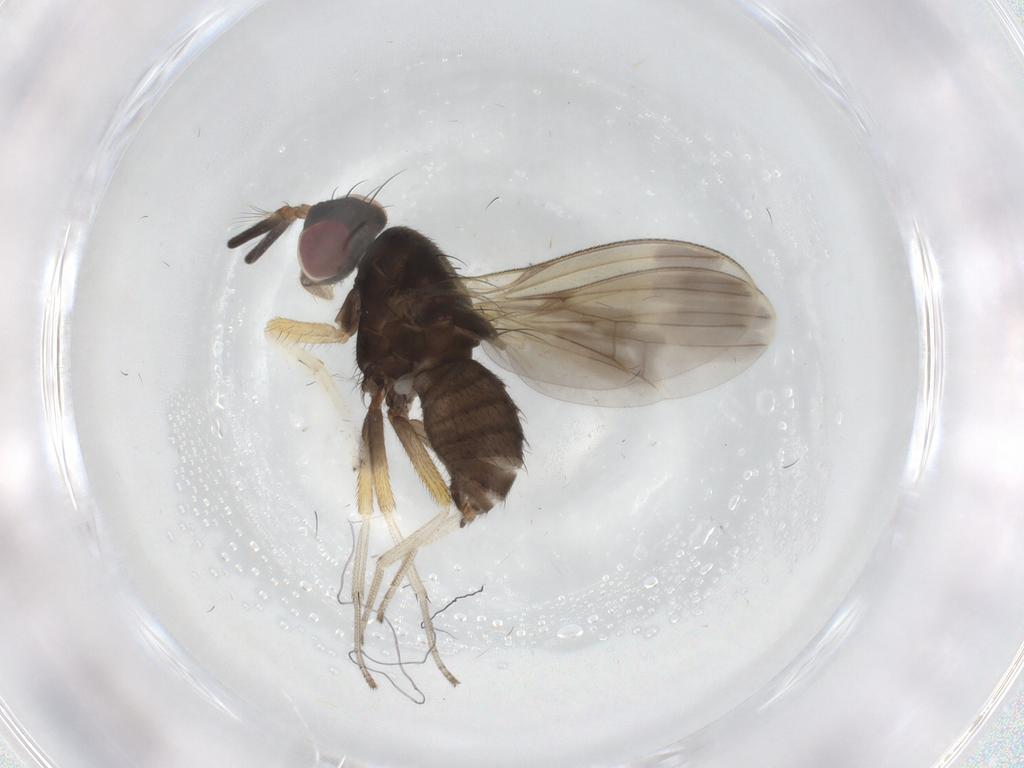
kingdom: Animalia
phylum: Arthropoda
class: Insecta
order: Diptera
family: Lauxaniidae
